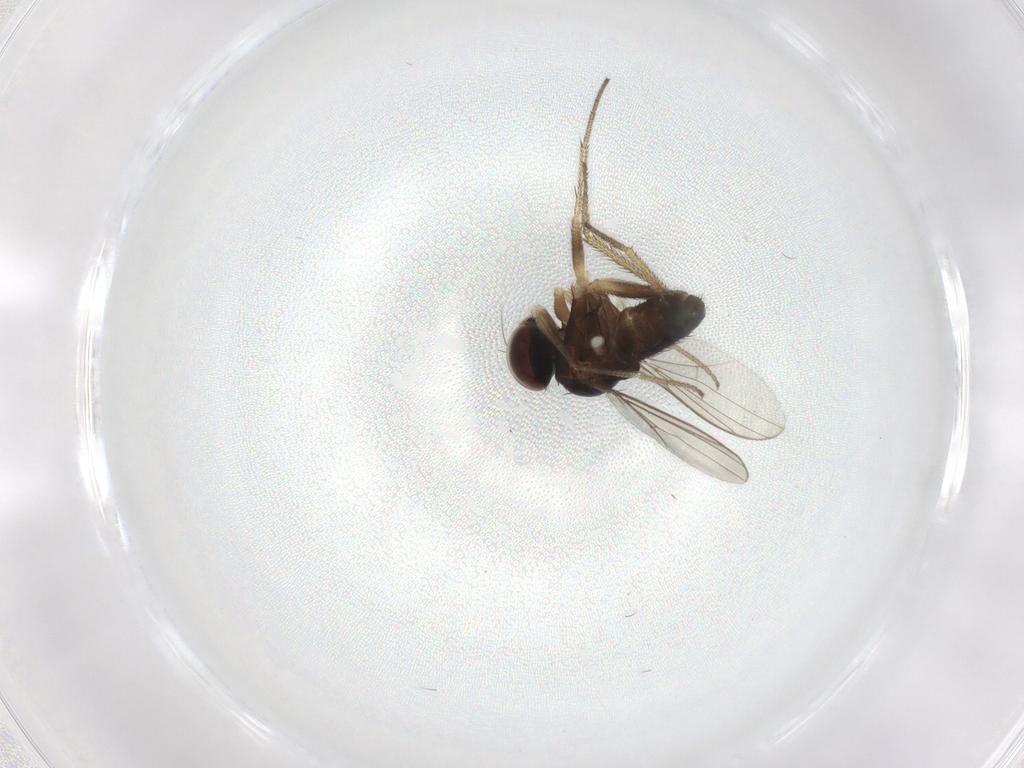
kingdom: Animalia
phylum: Arthropoda
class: Insecta
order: Diptera
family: Dolichopodidae
